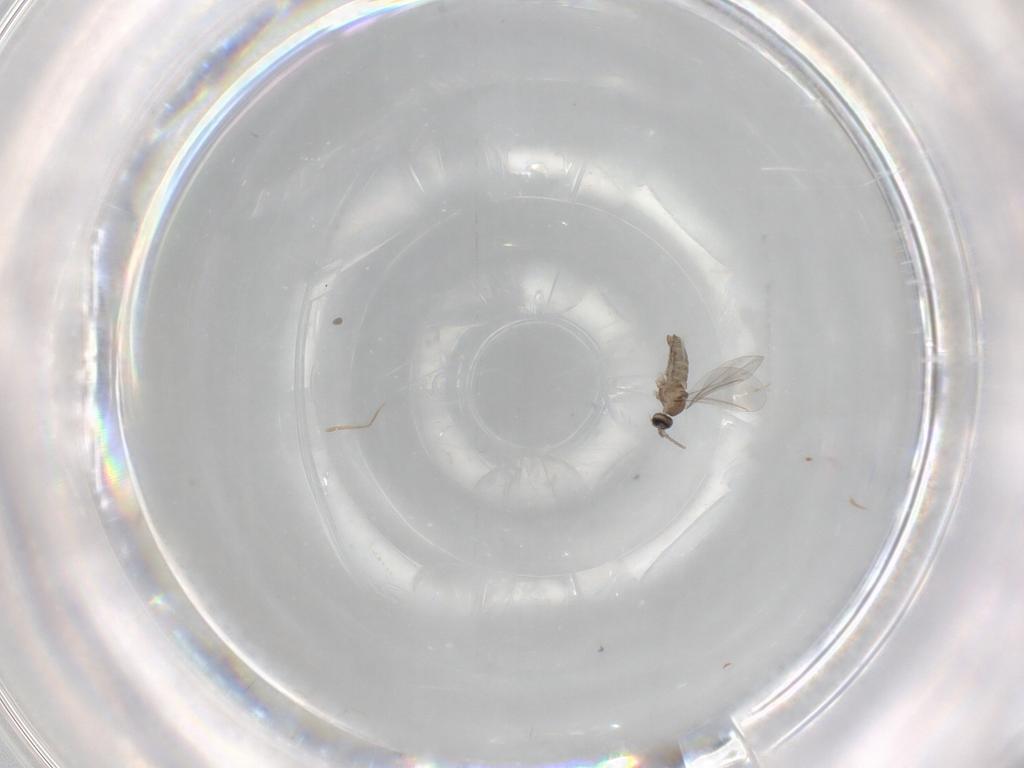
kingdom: Animalia
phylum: Arthropoda
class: Insecta
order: Diptera
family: Cecidomyiidae
